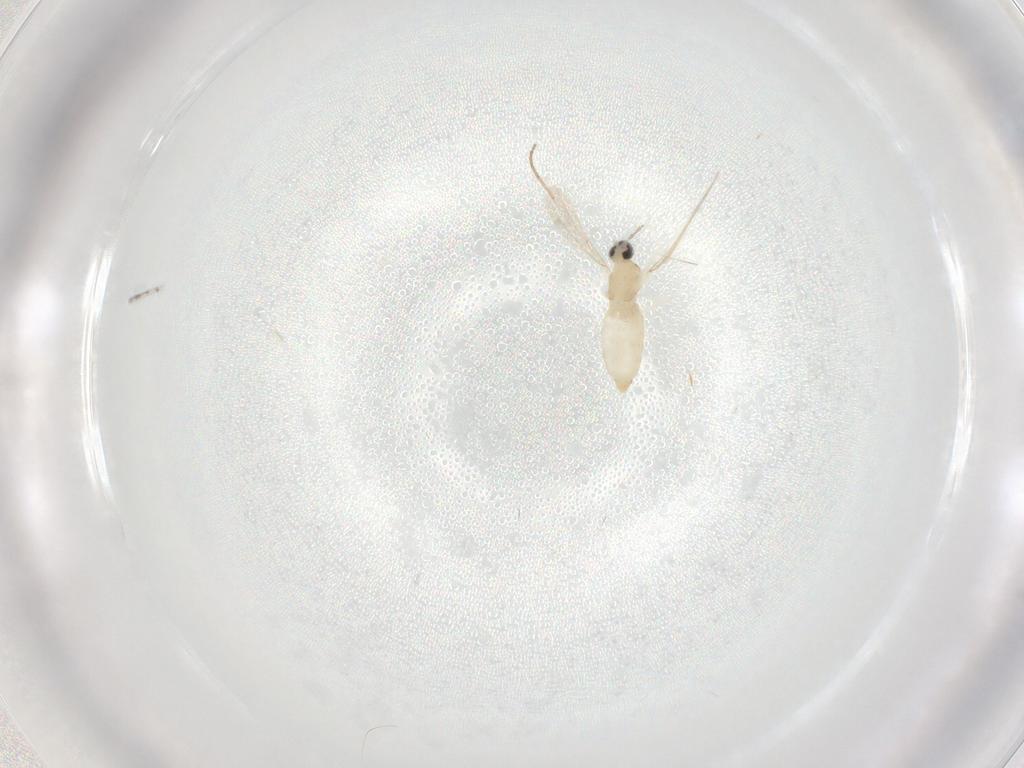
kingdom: Animalia
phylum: Arthropoda
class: Insecta
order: Diptera
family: Cecidomyiidae
